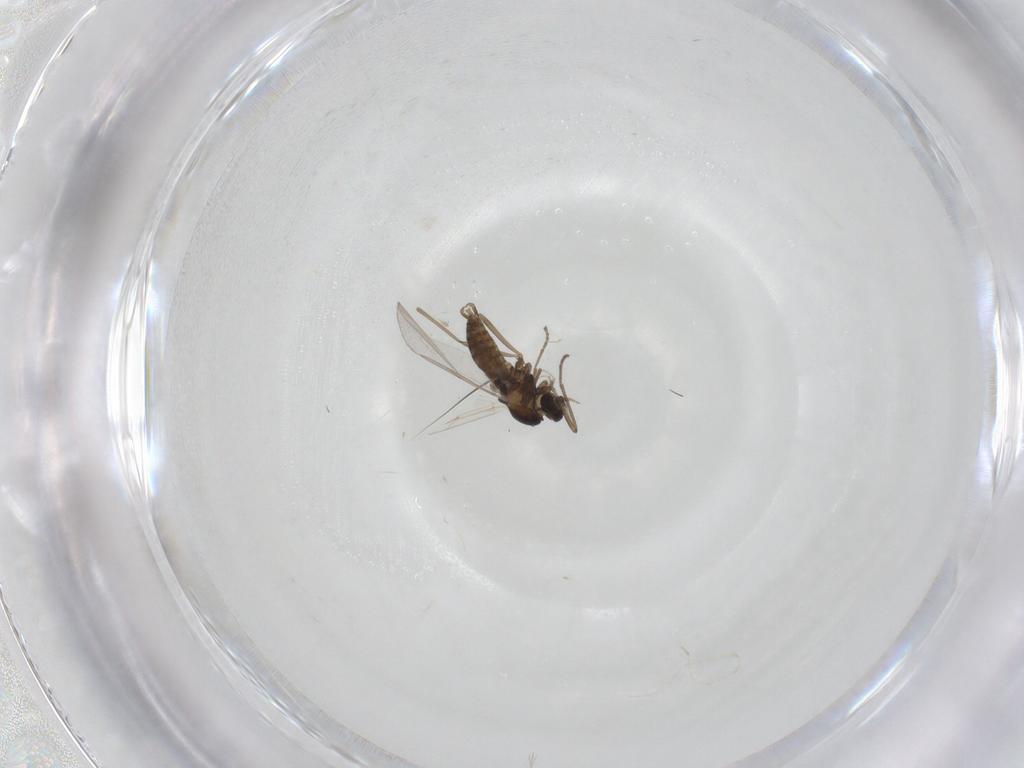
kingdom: Animalia
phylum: Arthropoda
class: Insecta
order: Diptera
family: Cecidomyiidae
